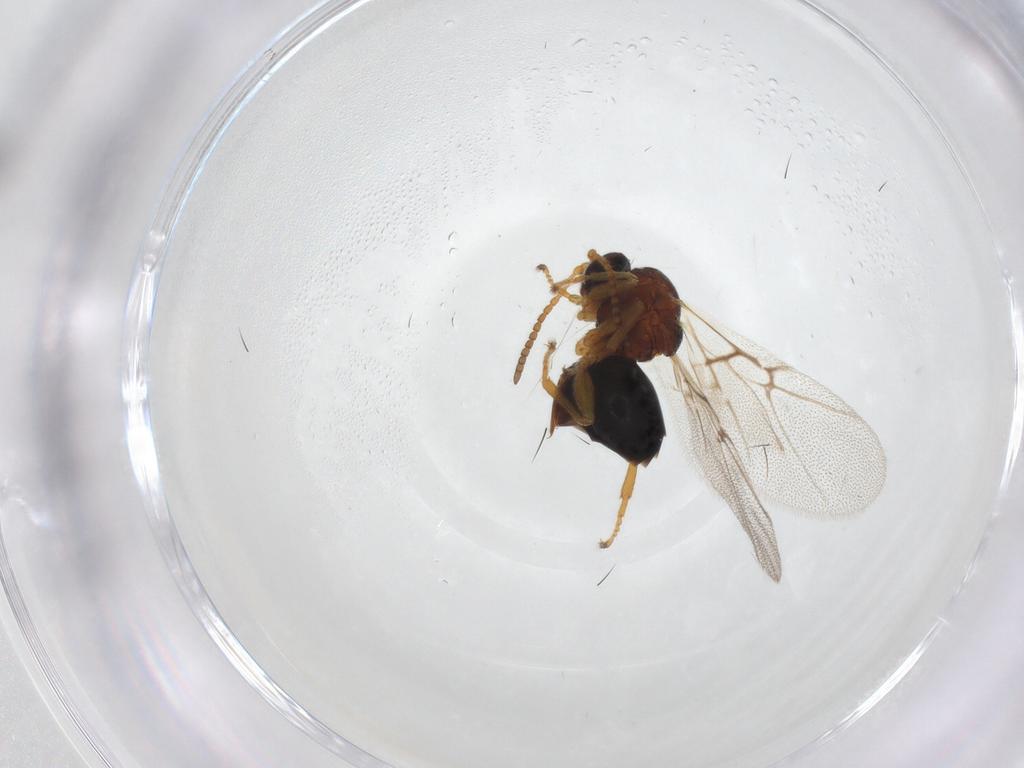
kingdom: Animalia
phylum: Arthropoda
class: Insecta
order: Hymenoptera
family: Cynipidae
